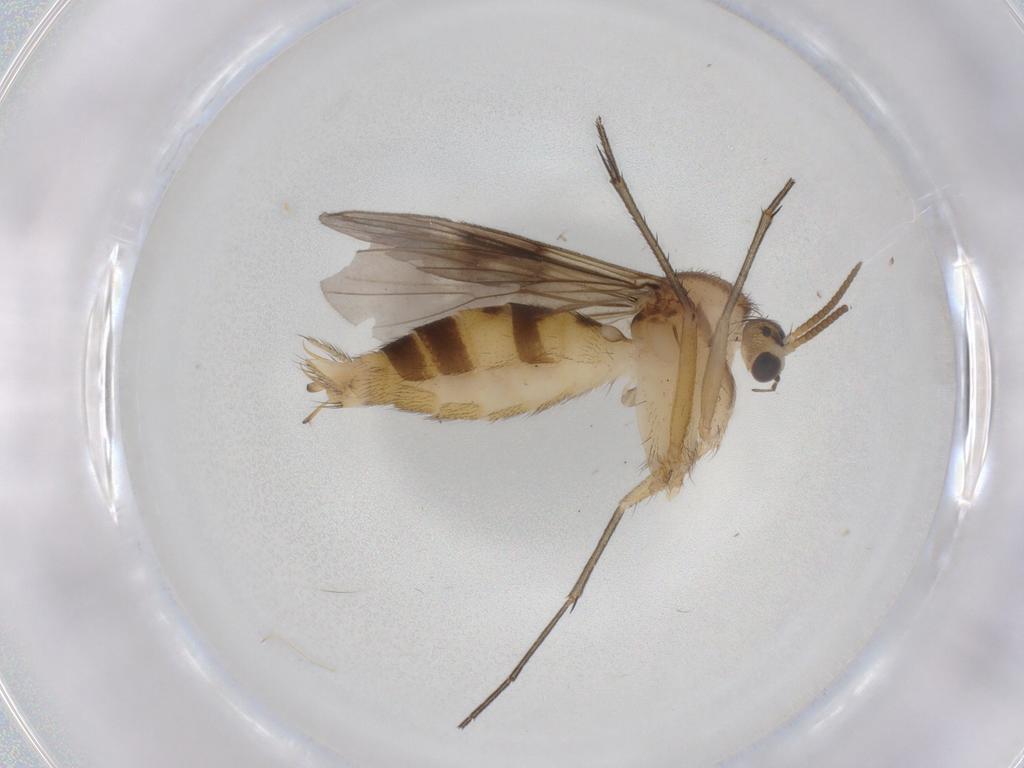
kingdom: Animalia
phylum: Arthropoda
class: Insecta
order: Diptera
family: Ceratopogonidae
